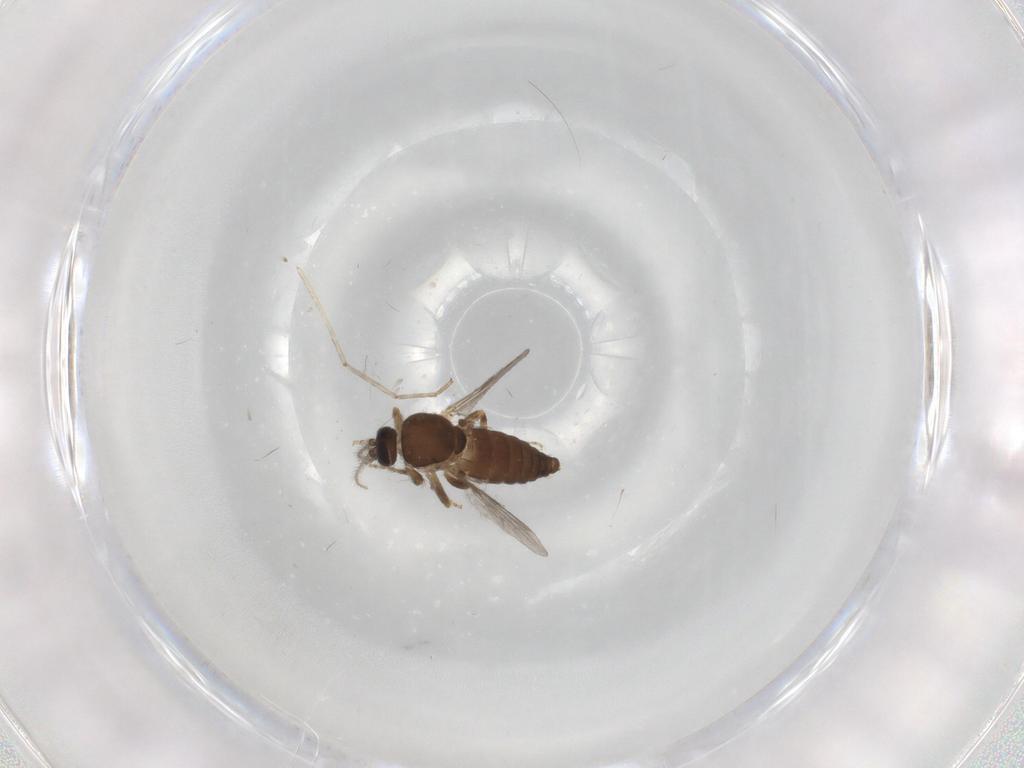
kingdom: Animalia
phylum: Arthropoda
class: Insecta
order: Diptera
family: Cecidomyiidae
